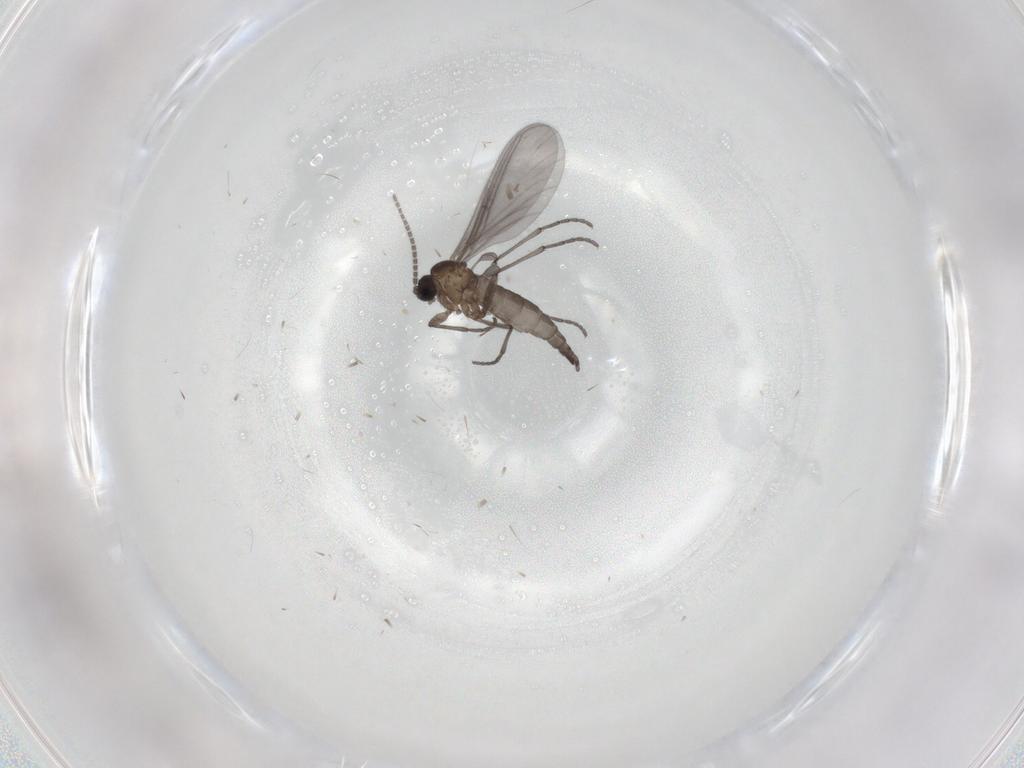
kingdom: Animalia
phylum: Arthropoda
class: Insecta
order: Diptera
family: Sciaridae
